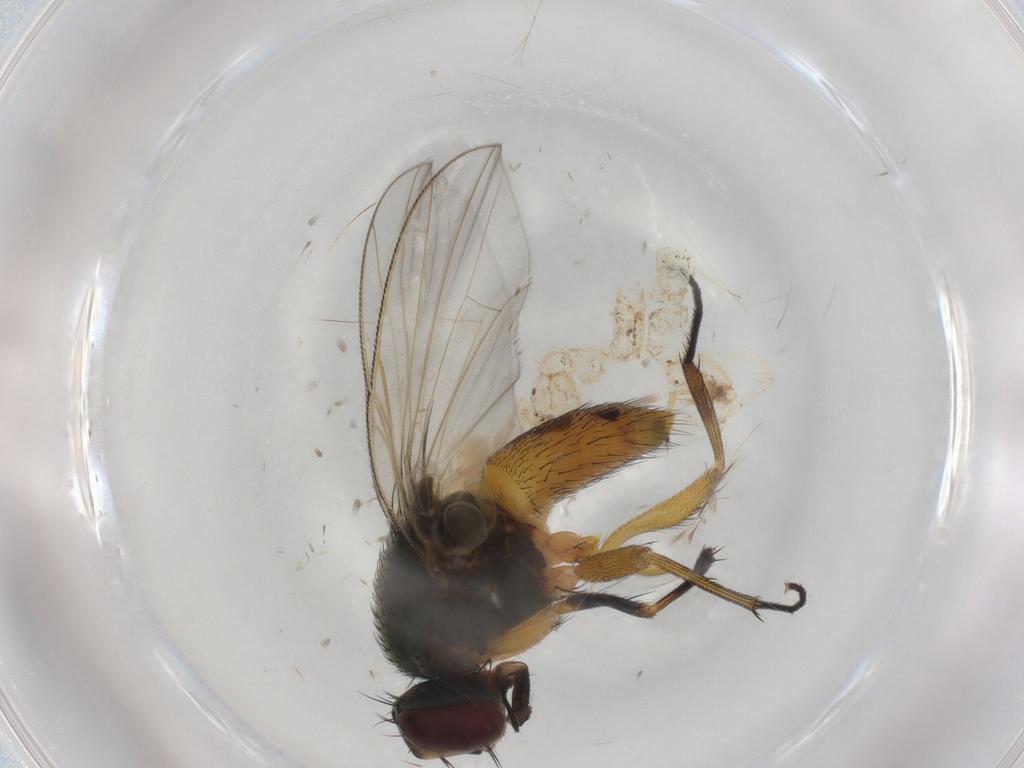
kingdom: Animalia
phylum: Arthropoda
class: Insecta
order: Diptera
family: Muscidae
